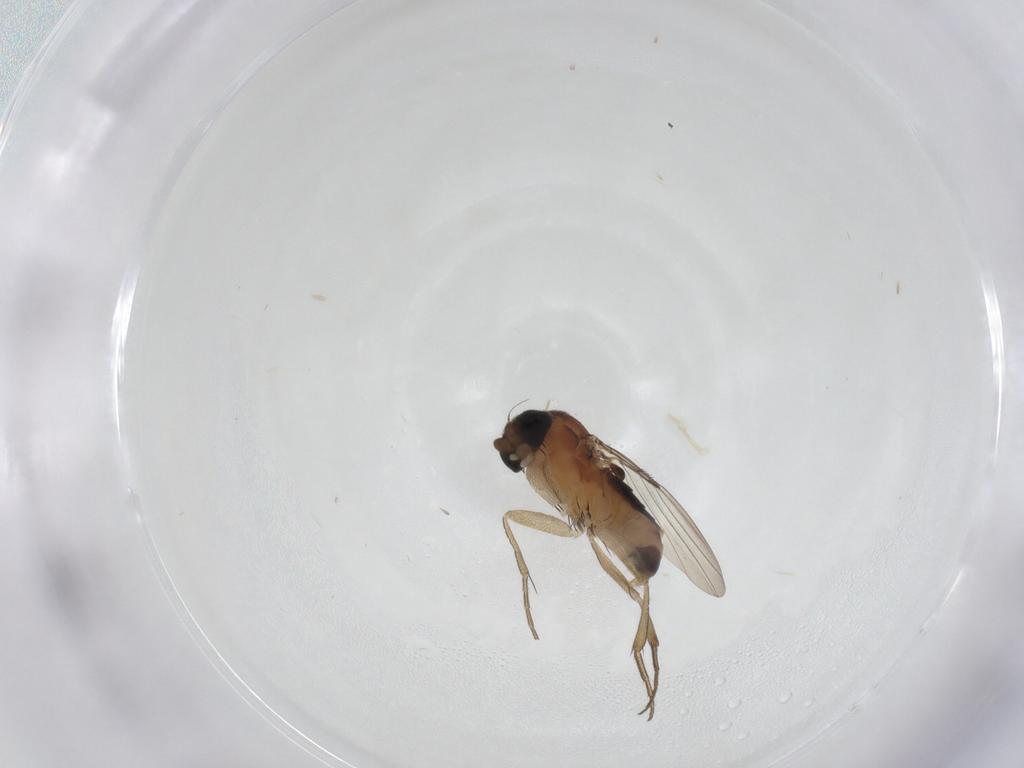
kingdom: Animalia
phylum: Arthropoda
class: Insecta
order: Diptera
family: Phoridae
